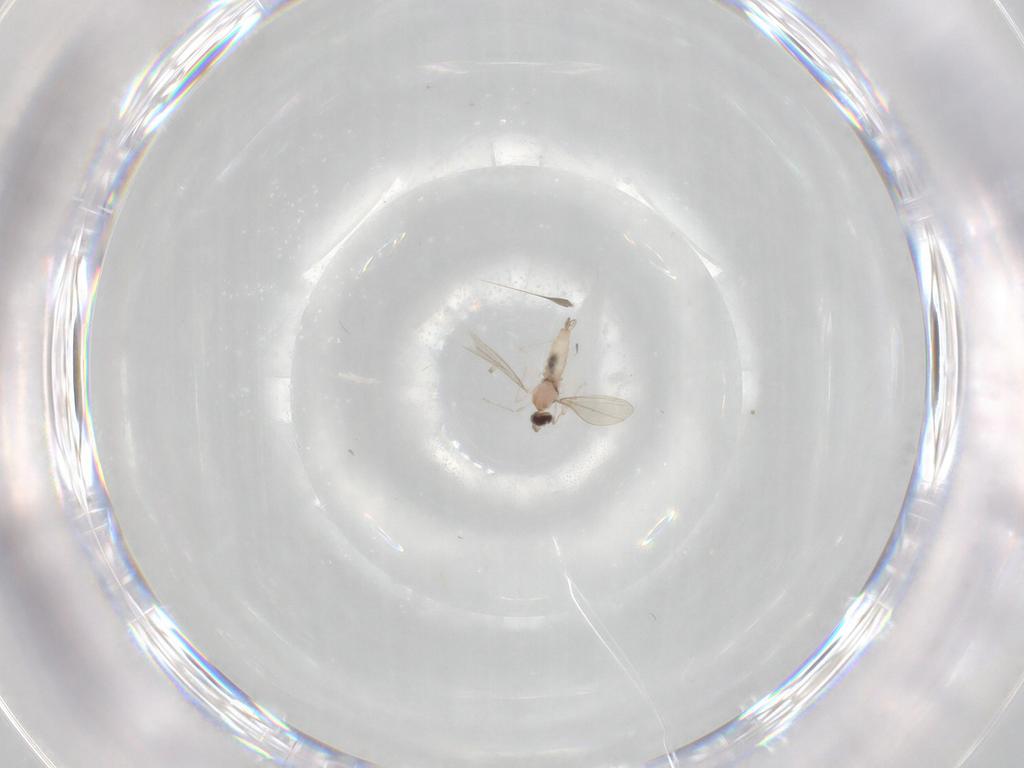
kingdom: Animalia
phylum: Arthropoda
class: Insecta
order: Diptera
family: Cecidomyiidae
